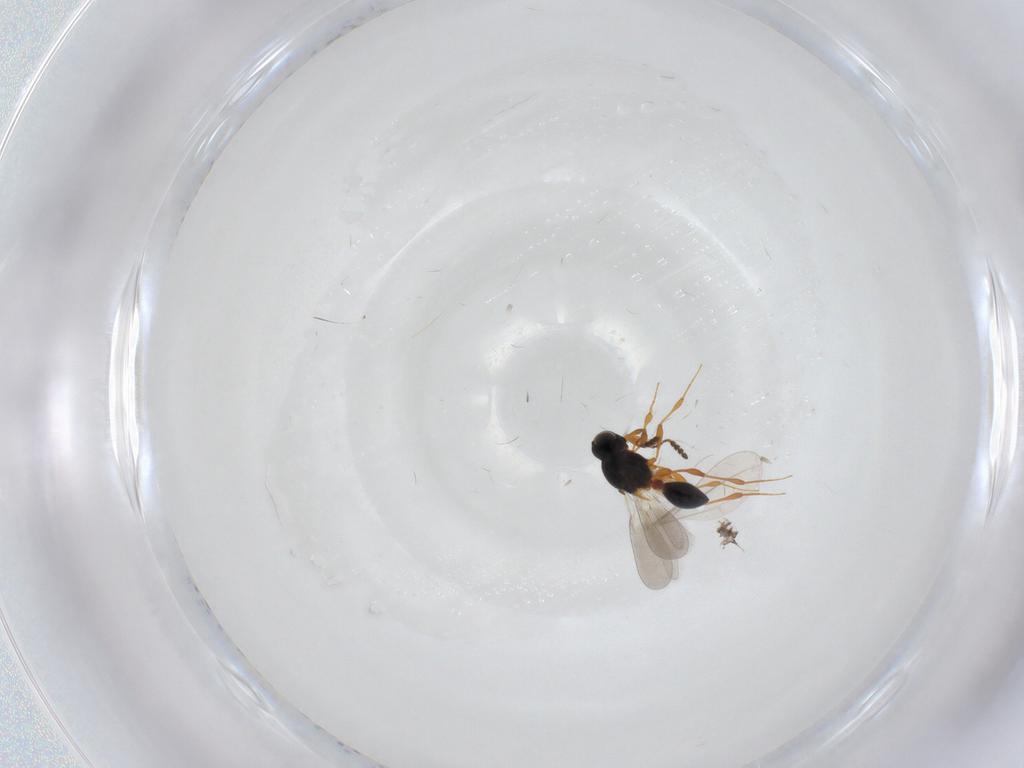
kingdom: Animalia
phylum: Arthropoda
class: Insecta
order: Hymenoptera
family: Platygastridae
